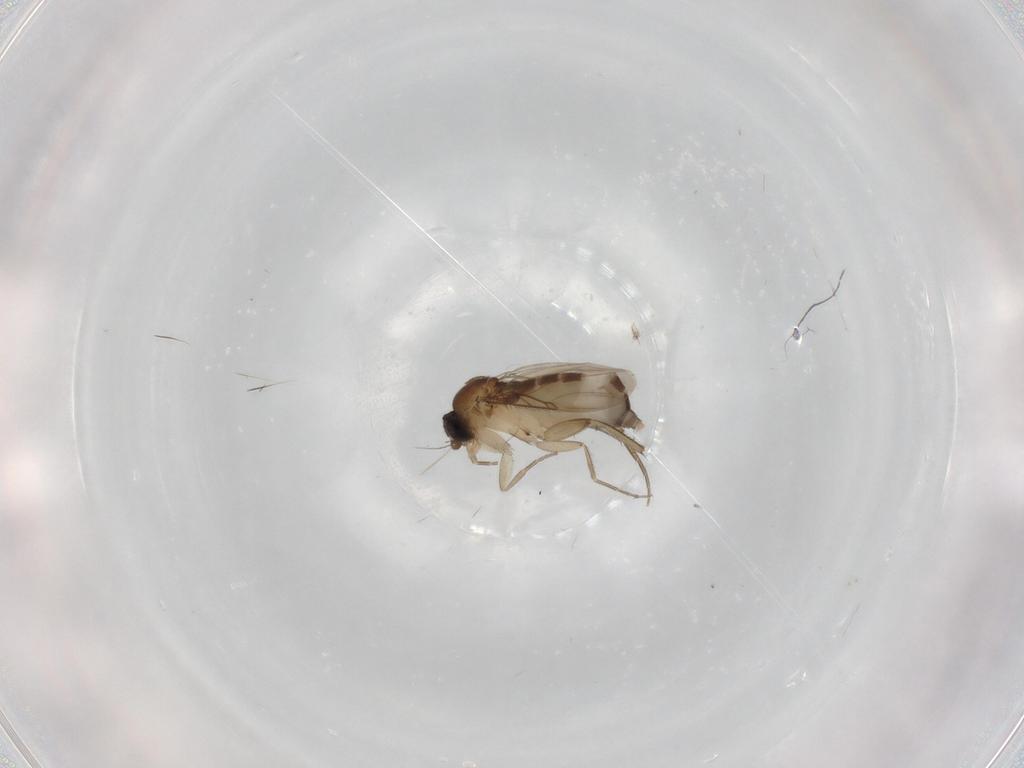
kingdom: Animalia
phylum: Arthropoda
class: Insecta
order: Diptera
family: Phoridae
